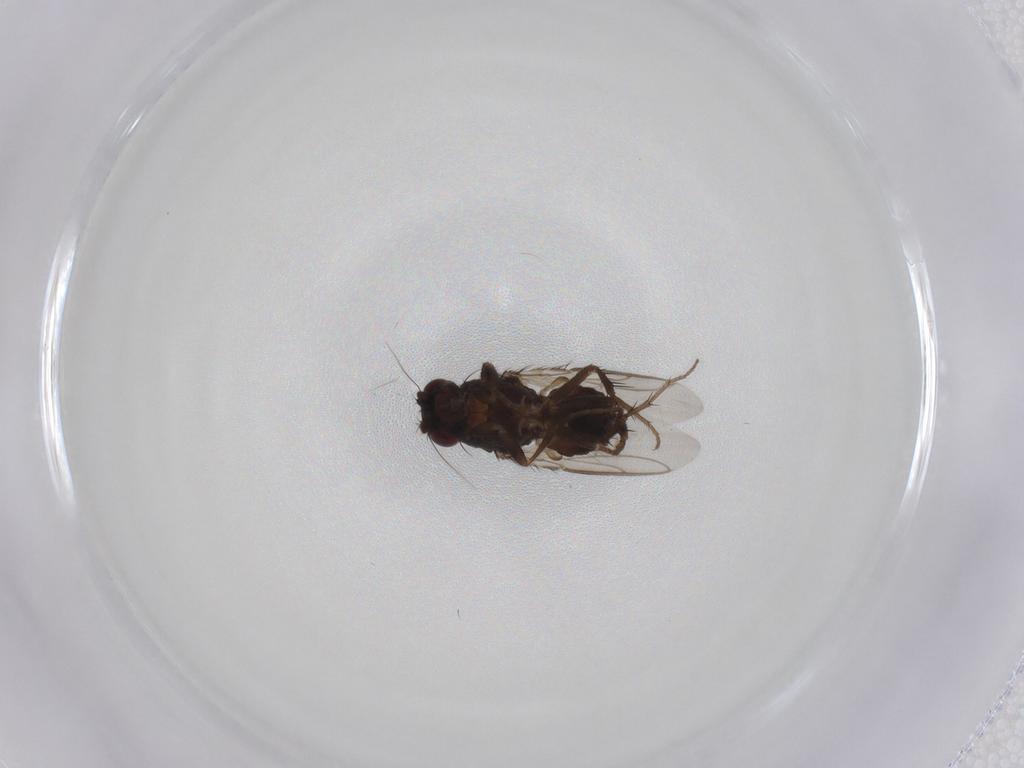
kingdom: Animalia
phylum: Arthropoda
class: Insecta
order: Diptera
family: Sphaeroceridae
